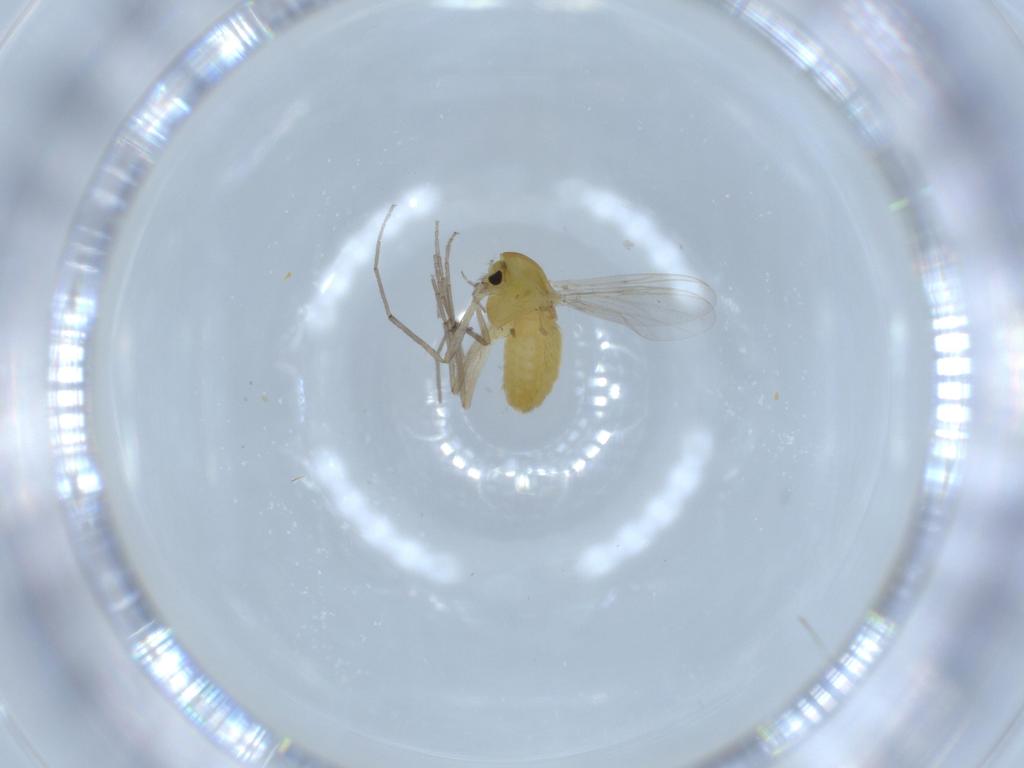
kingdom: Animalia
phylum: Arthropoda
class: Insecta
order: Diptera
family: Chironomidae
